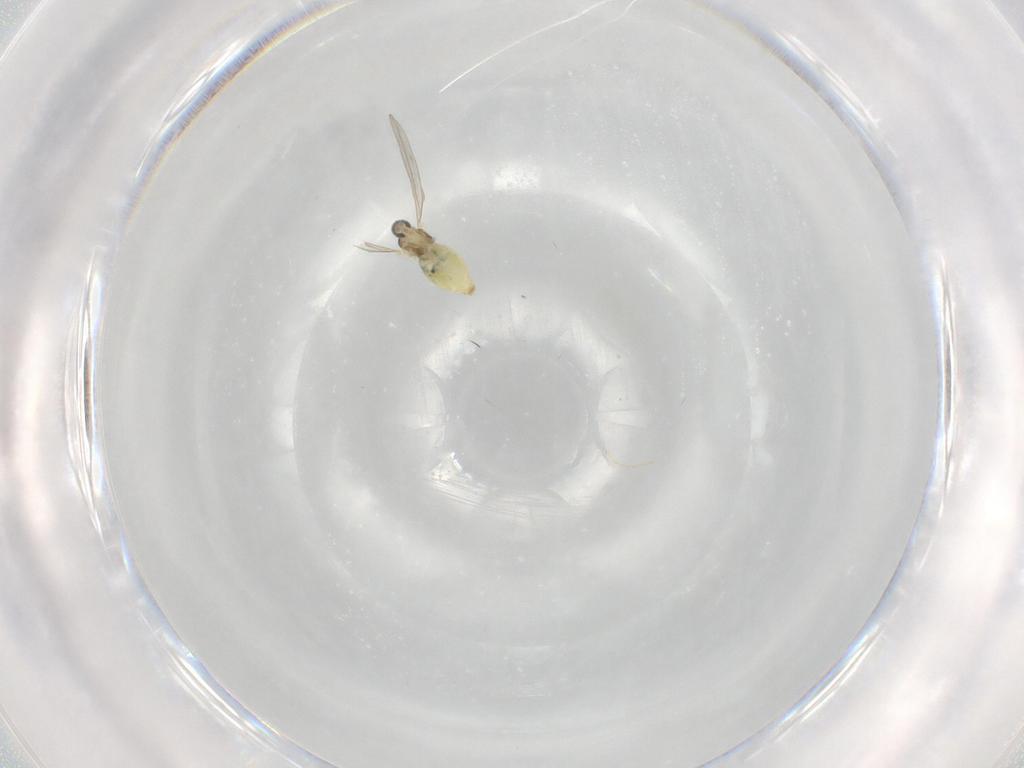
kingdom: Animalia
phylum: Arthropoda
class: Insecta
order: Diptera
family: Cecidomyiidae
